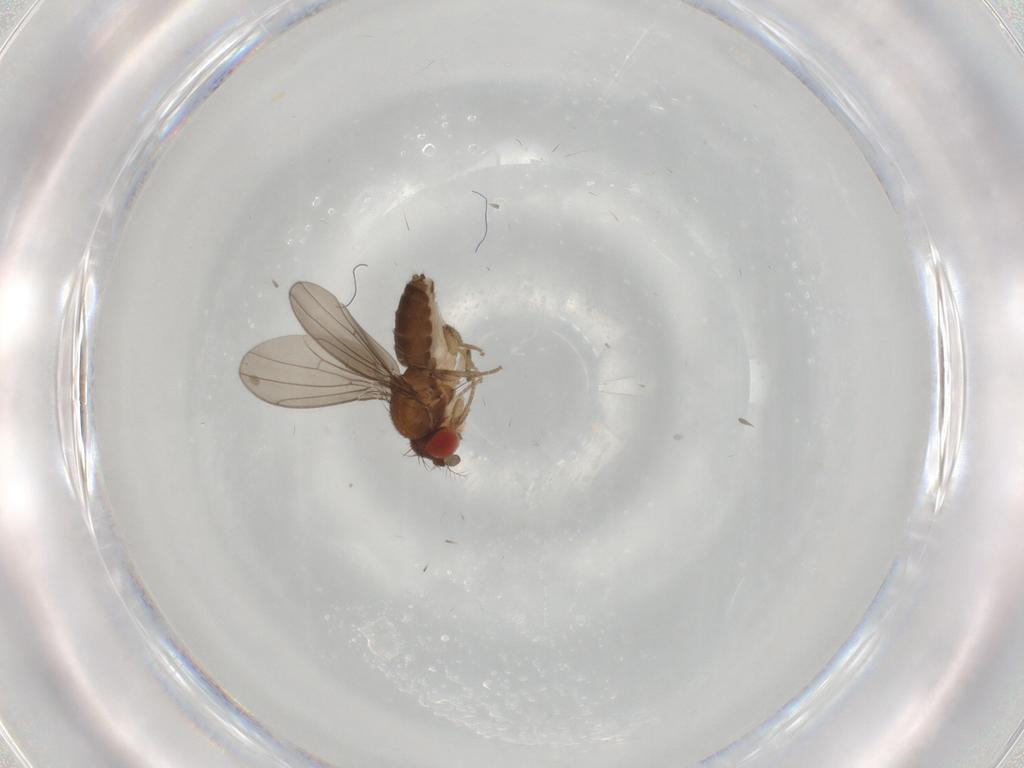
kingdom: Animalia
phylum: Arthropoda
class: Insecta
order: Diptera
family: Drosophilidae
